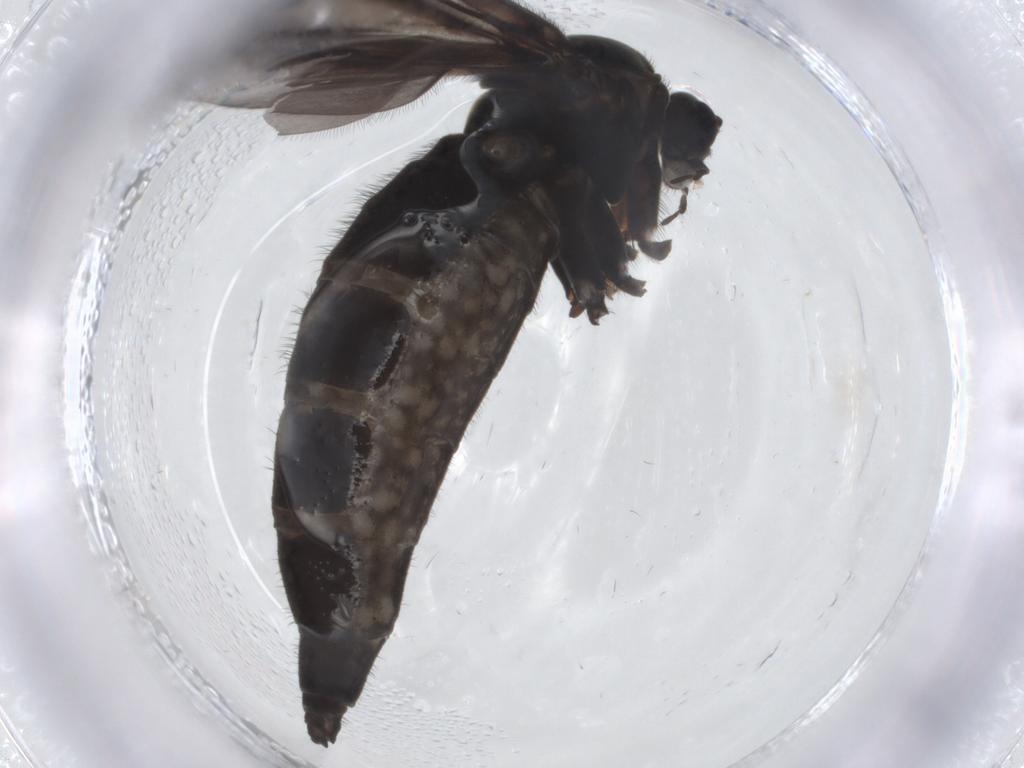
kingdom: Animalia
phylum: Arthropoda
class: Insecta
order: Diptera
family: Sciaridae
